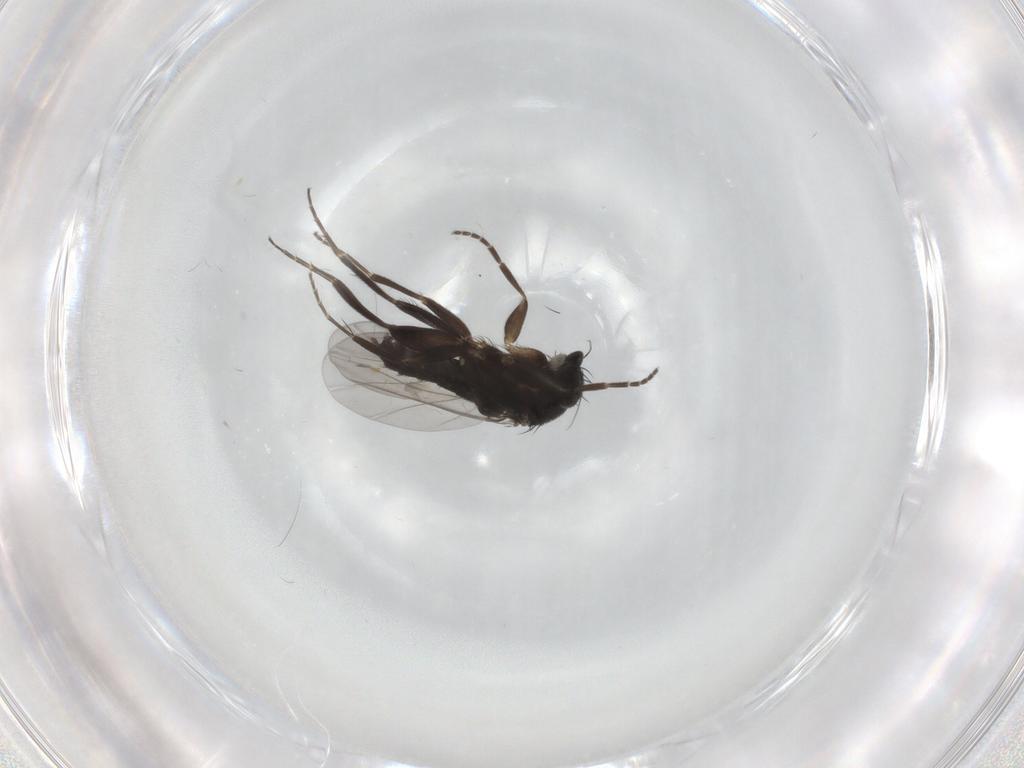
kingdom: Animalia
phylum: Arthropoda
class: Insecta
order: Diptera
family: Phoridae
